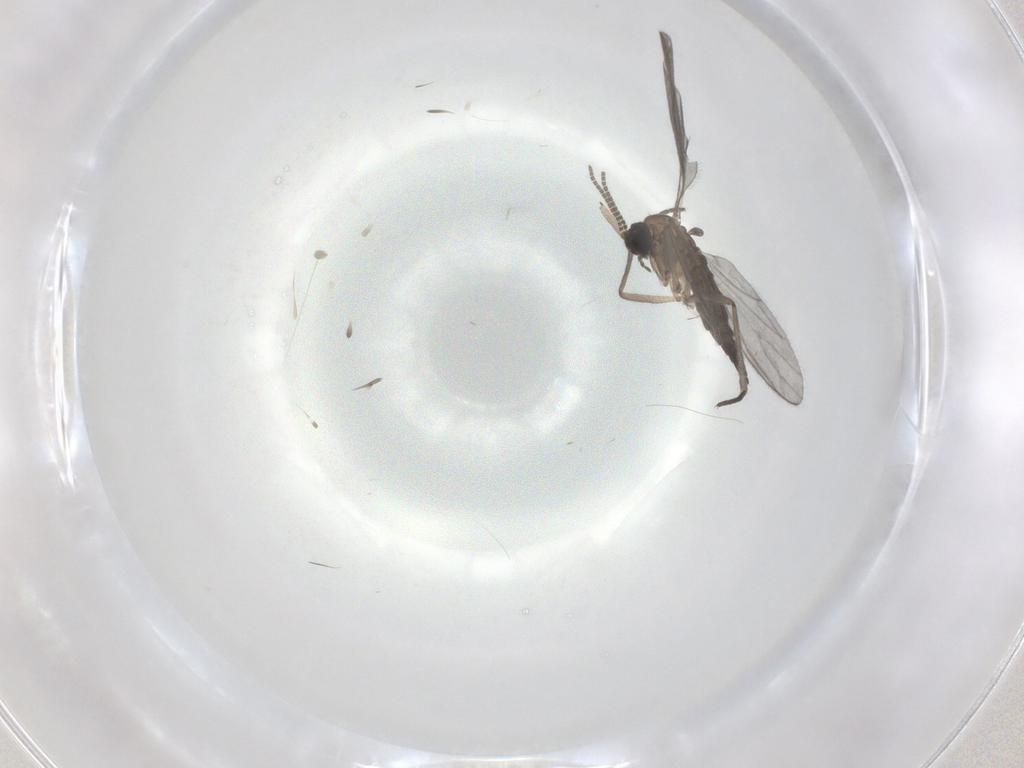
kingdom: Animalia
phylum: Arthropoda
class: Insecta
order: Diptera
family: Sciaridae
